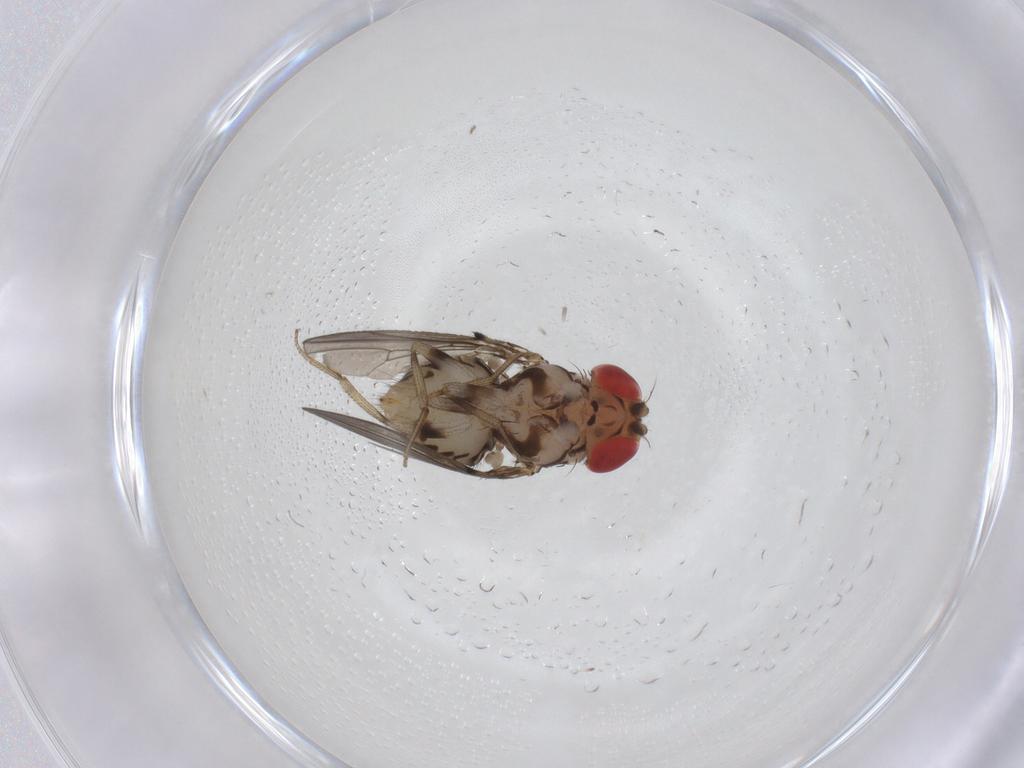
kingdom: Animalia
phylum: Arthropoda
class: Insecta
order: Diptera
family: Drosophilidae
